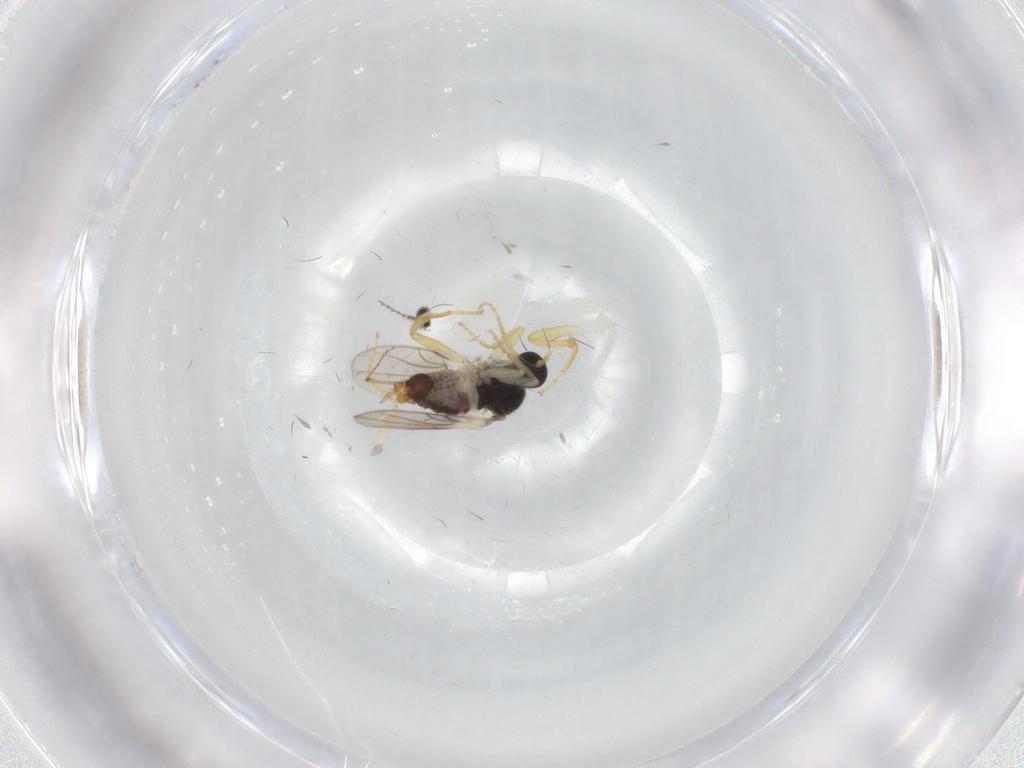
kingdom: Animalia
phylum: Arthropoda
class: Insecta
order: Diptera
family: Hybotidae
